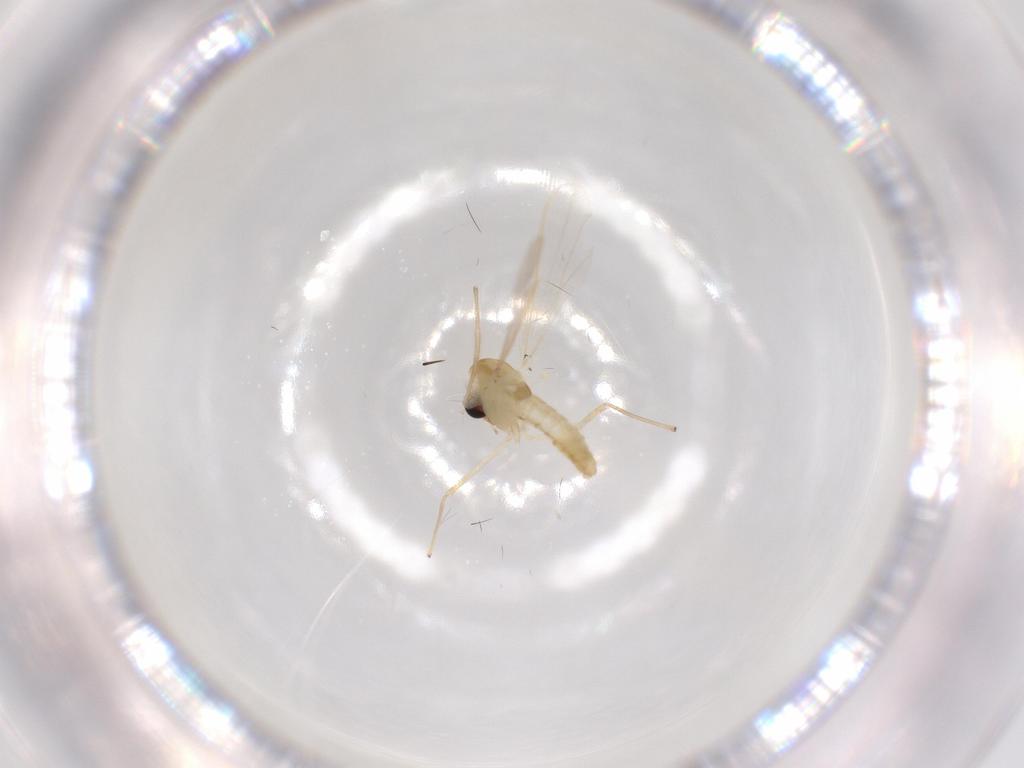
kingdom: Animalia
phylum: Arthropoda
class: Insecta
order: Diptera
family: Chironomidae
